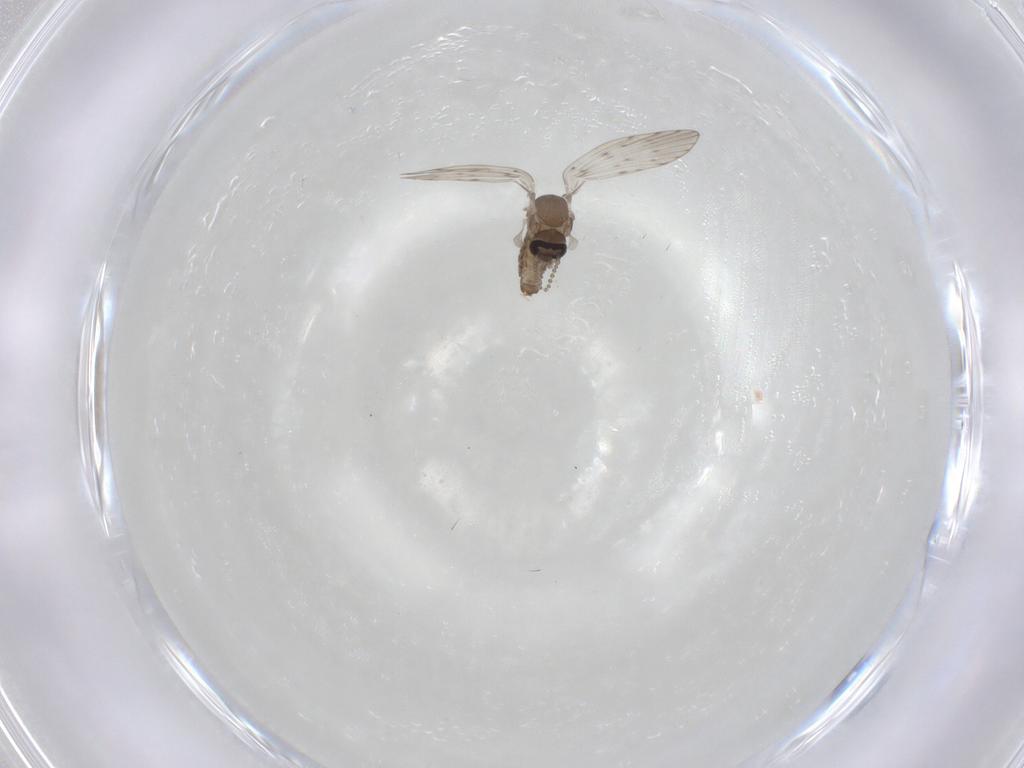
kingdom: Animalia
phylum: Arthropoda
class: Insecta
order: Diptera
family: Psychodidae
